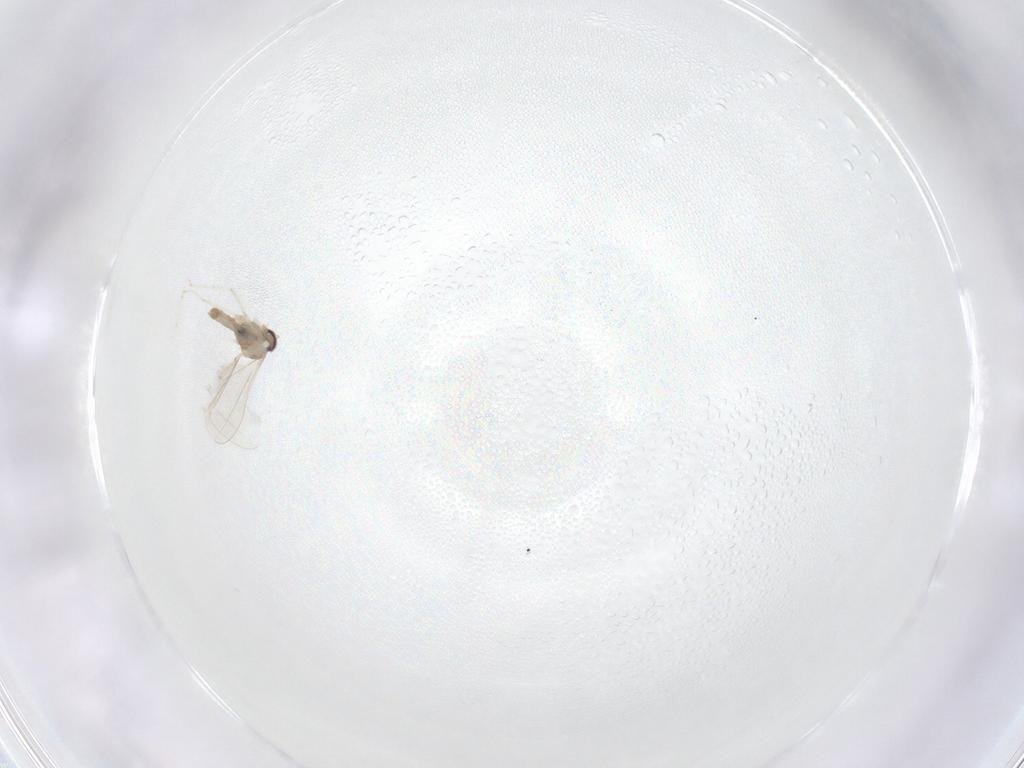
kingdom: Animalia
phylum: Arthropoda
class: Insecta
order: Diptera
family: Cecidomyiidae
